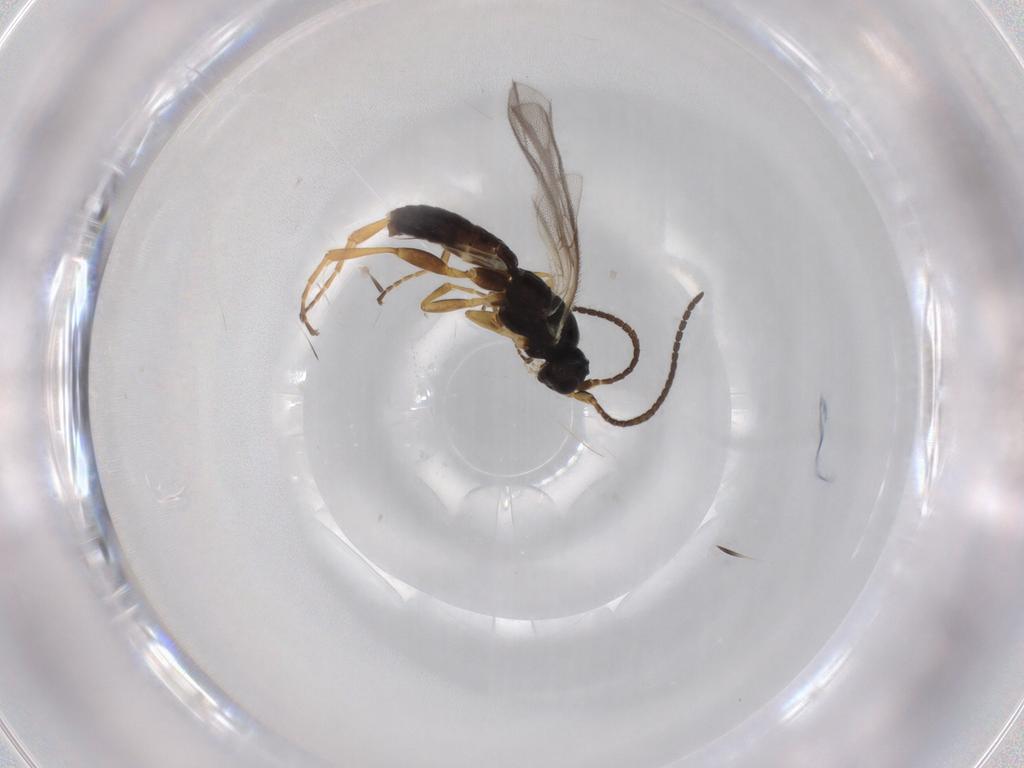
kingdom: Animalia
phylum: Arthropoda
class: Insecta
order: Hymenoptera
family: Ichneumonidae
